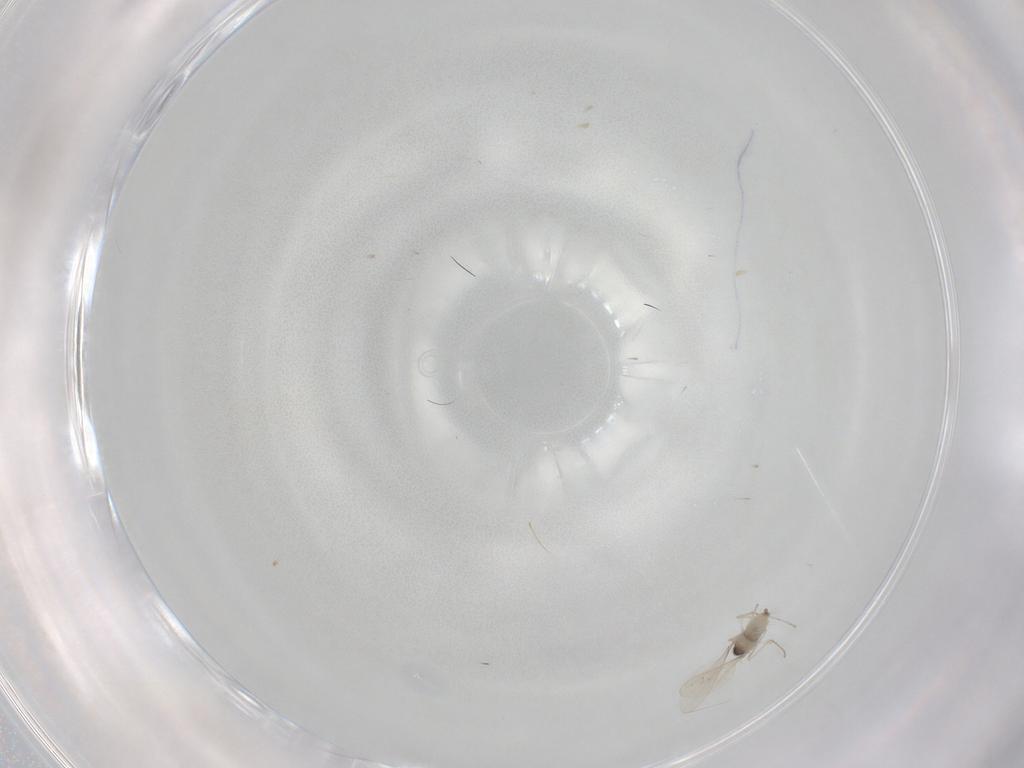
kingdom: Animalia
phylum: Arthropoda
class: Insecta
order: Diptera
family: Cecidomyiidae
